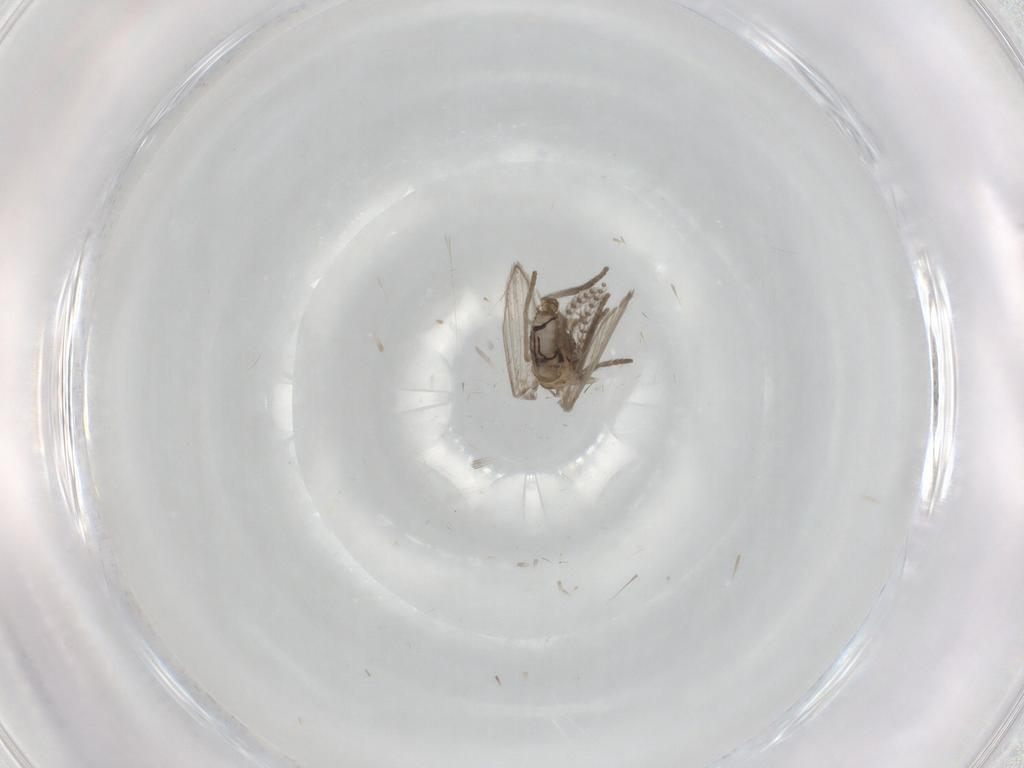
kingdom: Animalia
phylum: Arthropoda
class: Insecta
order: Diptera
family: Psychodidae
